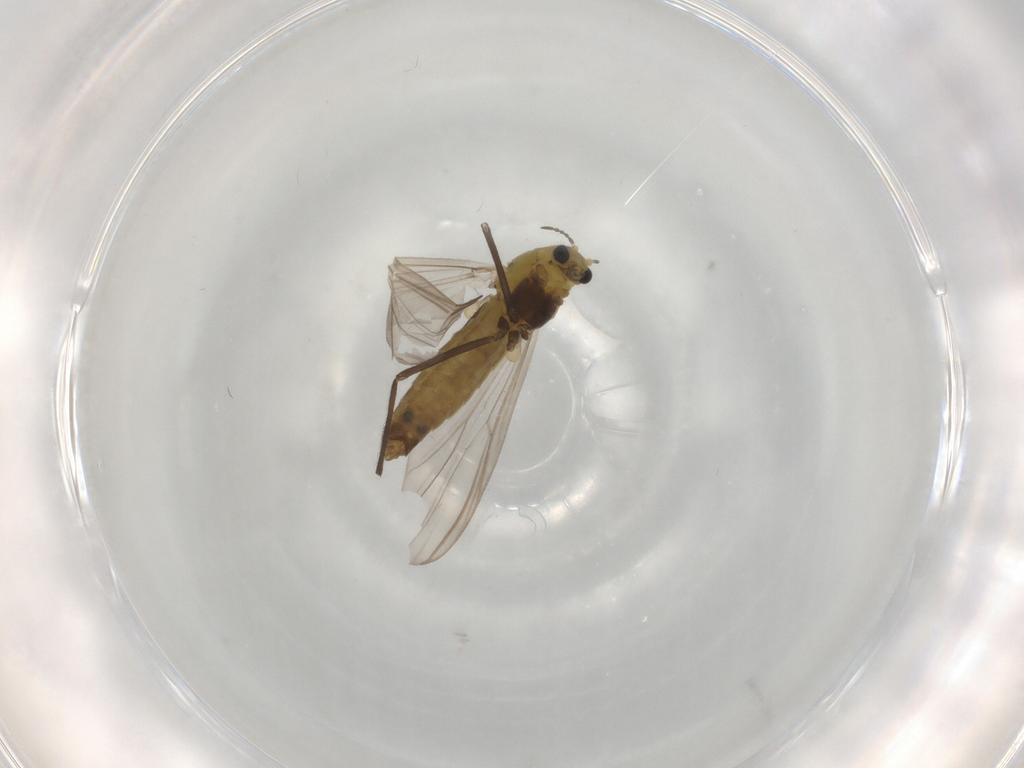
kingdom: Animalia
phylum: Arthropoda
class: Insecta
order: Diptera
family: Chironomidae
